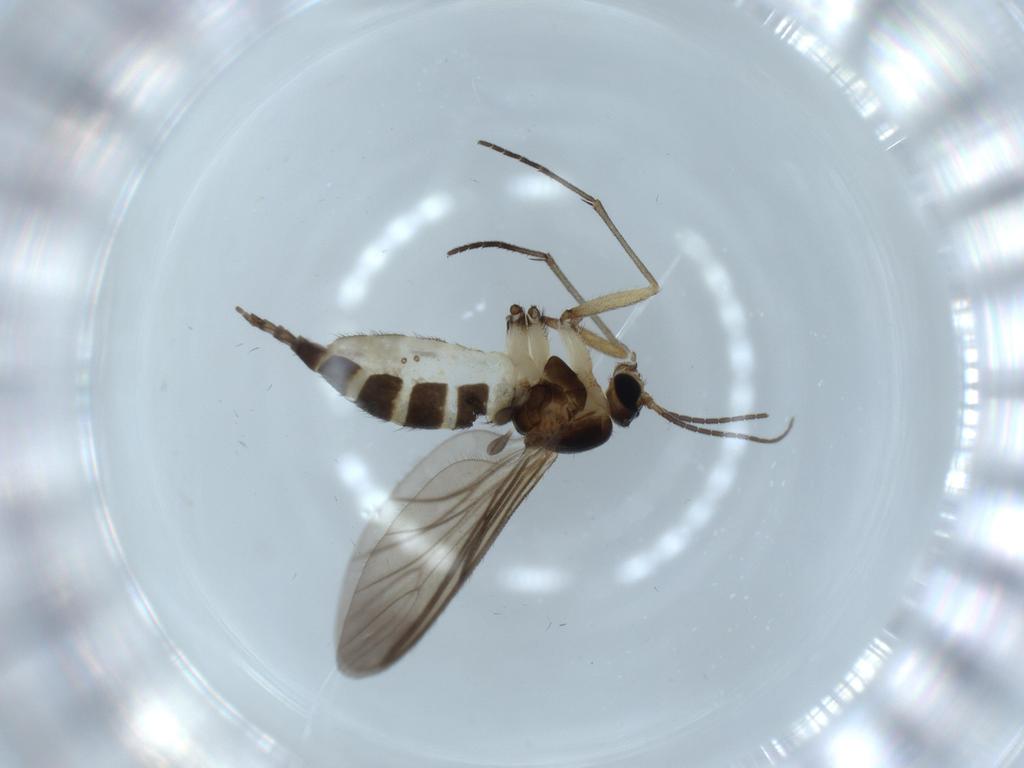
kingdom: Animalia
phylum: Arthropoda
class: Insecta
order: Diptera
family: Sciaridae
